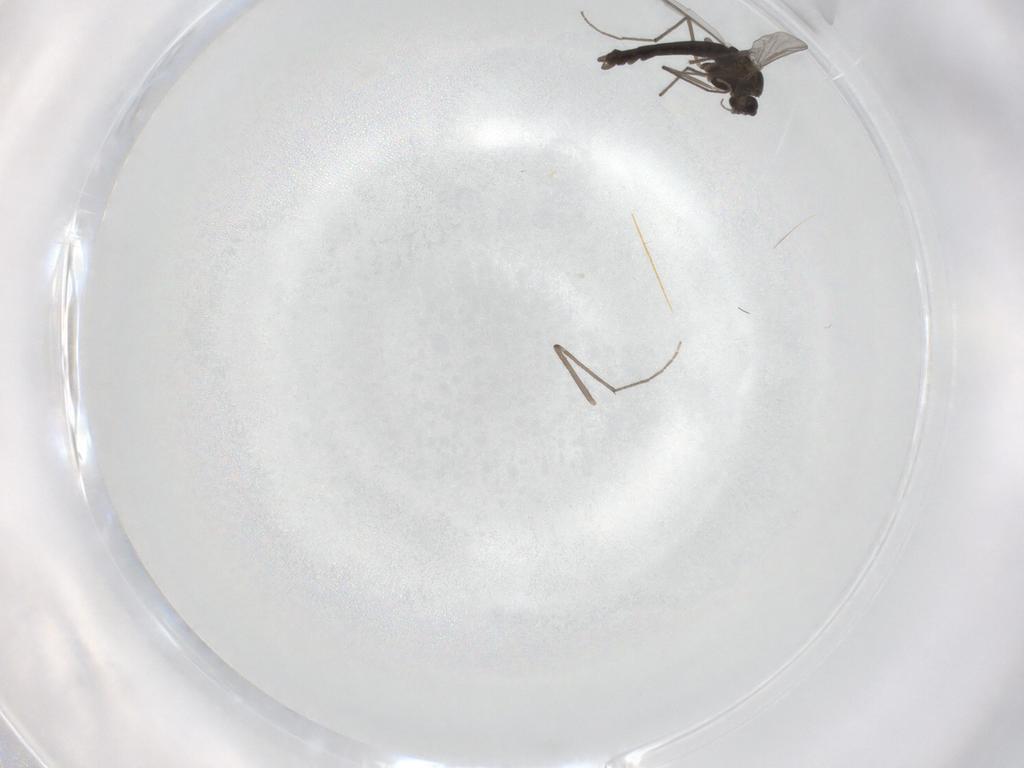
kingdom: Animalia
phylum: Arthropoda
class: Insecta
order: Diptera
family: Chironomidae
